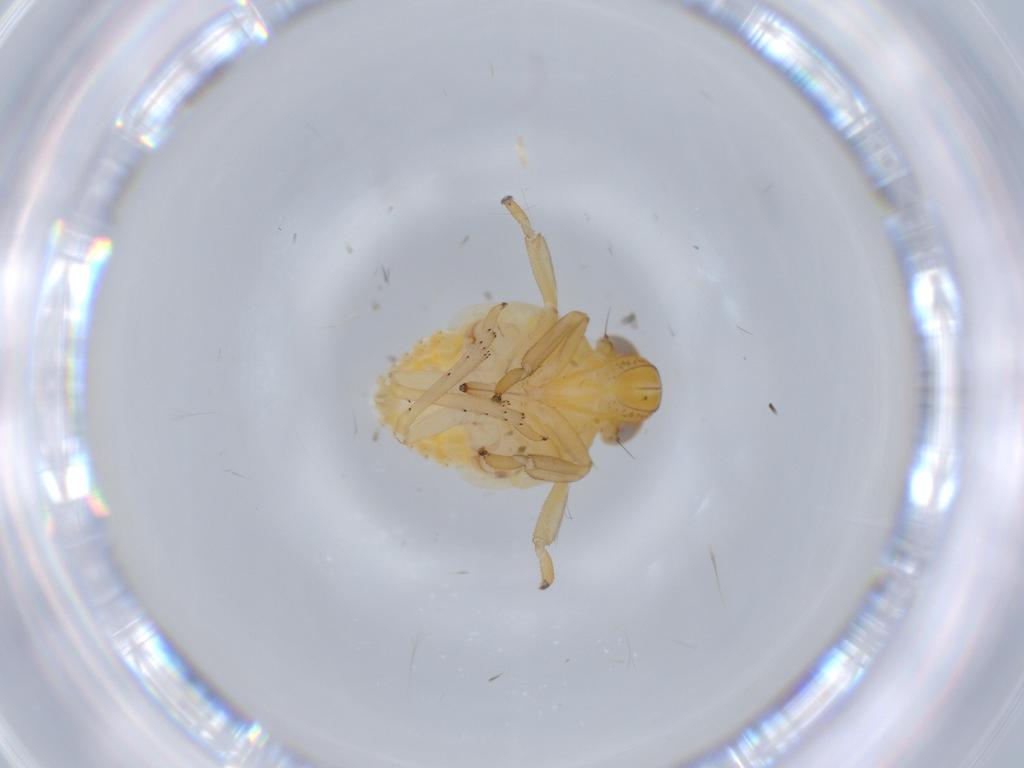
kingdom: Animalia
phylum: Arthropoda
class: Insecta
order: Hemiptera
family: Issidae
